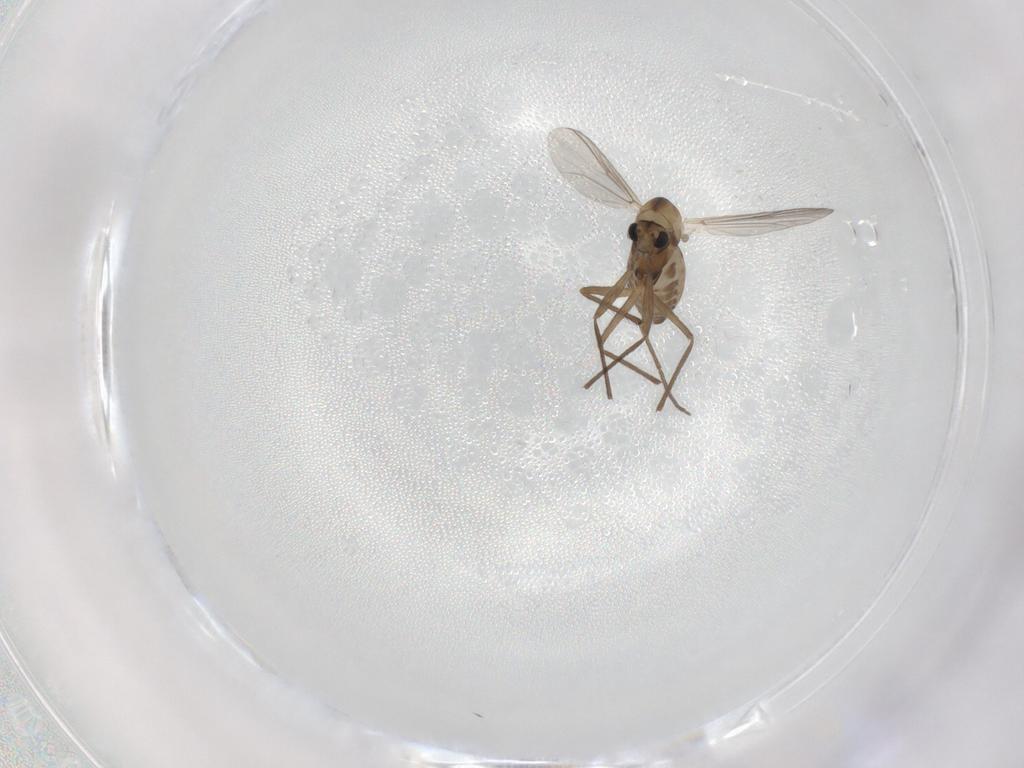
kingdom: Animalia
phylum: Arthropoda
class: Insecta
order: Diptera
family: Chironomidae
